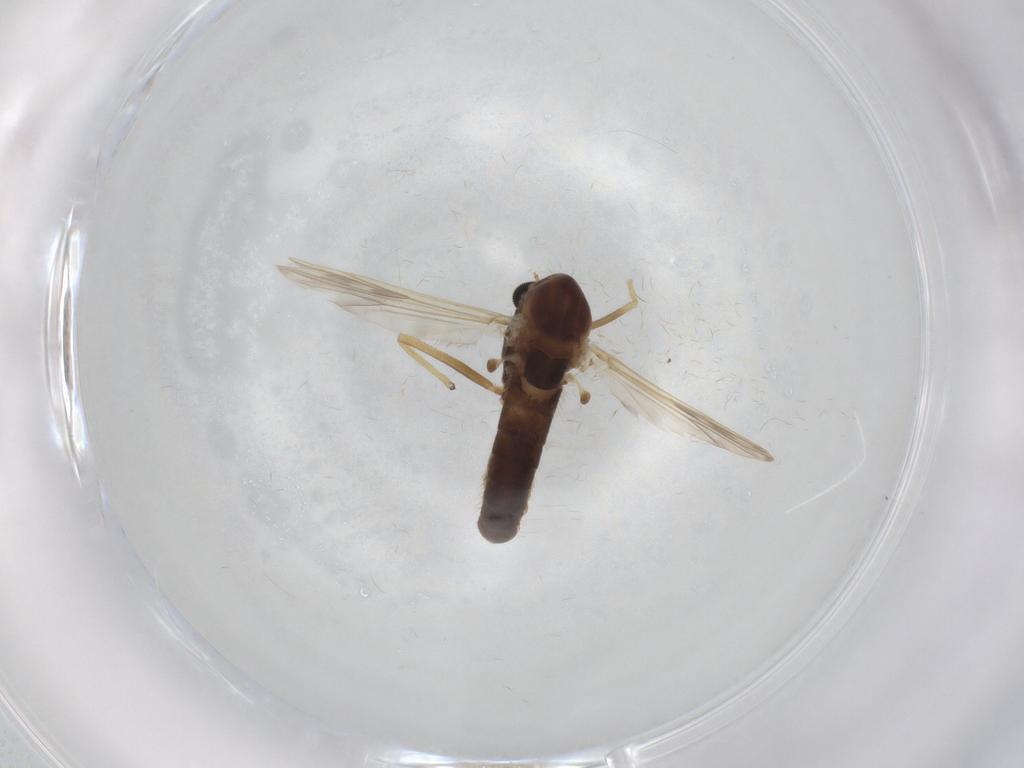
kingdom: Animalia
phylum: Arthropoda
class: Insecta
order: Diptera
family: Chironomidae
